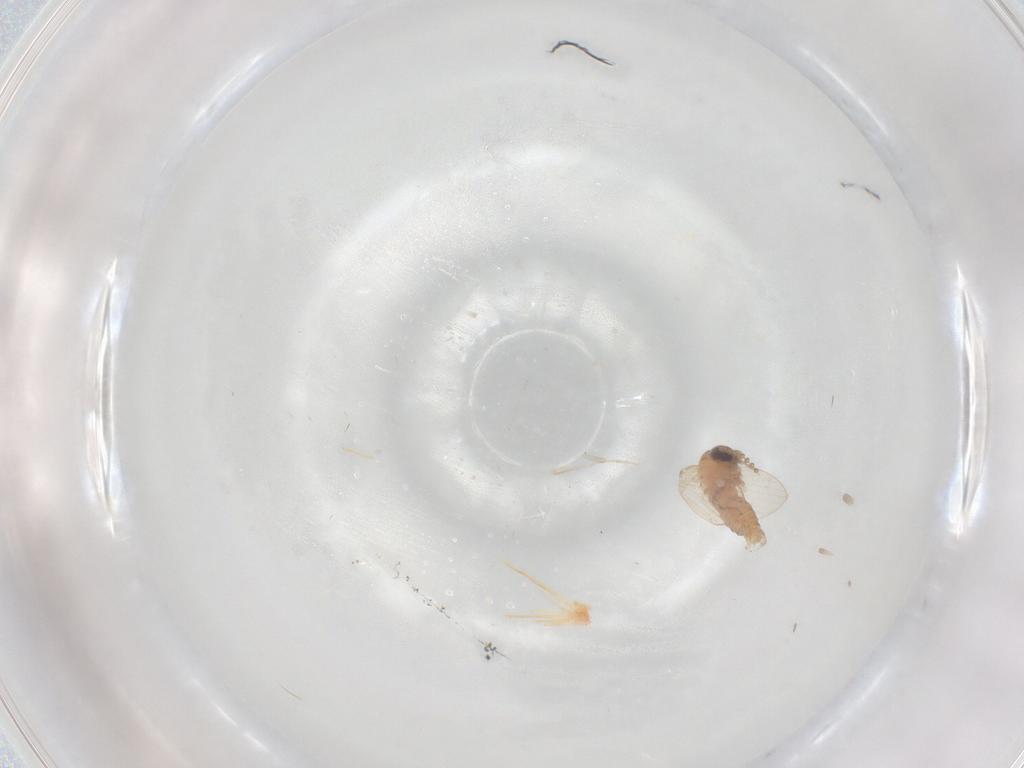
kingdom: Animalia
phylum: Arthropoda
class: Insecta
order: Diptera
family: Psychodidae
